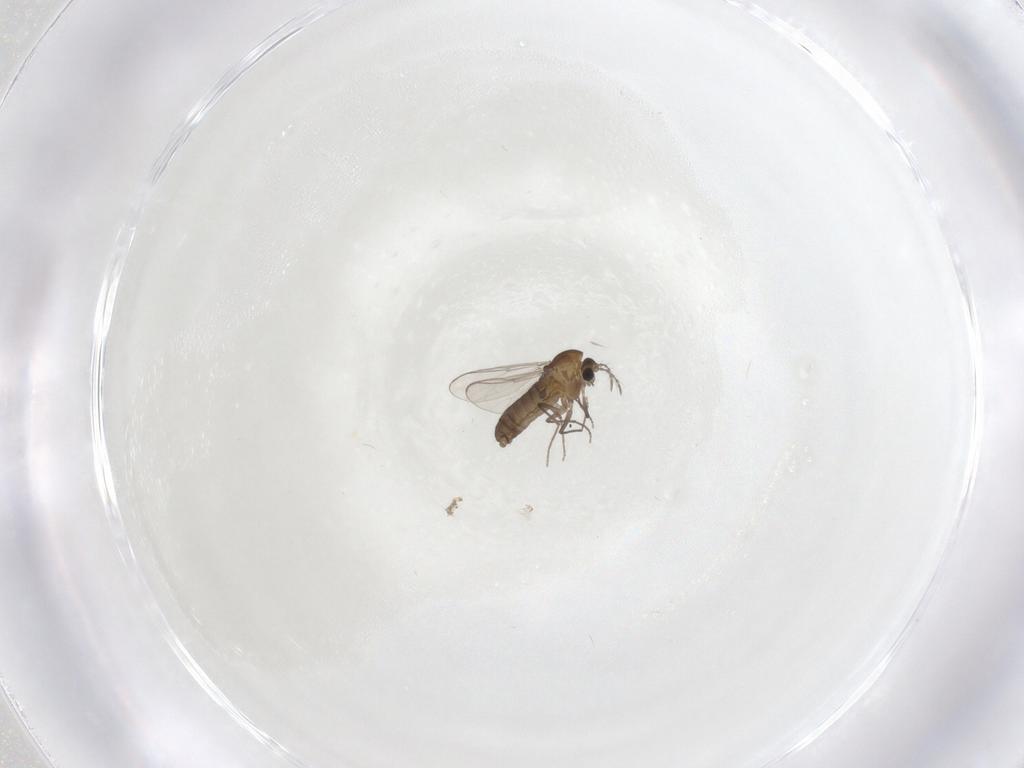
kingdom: Animalia
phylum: Arthropoda
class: Insecta
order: Diptera
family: Chironomidae
